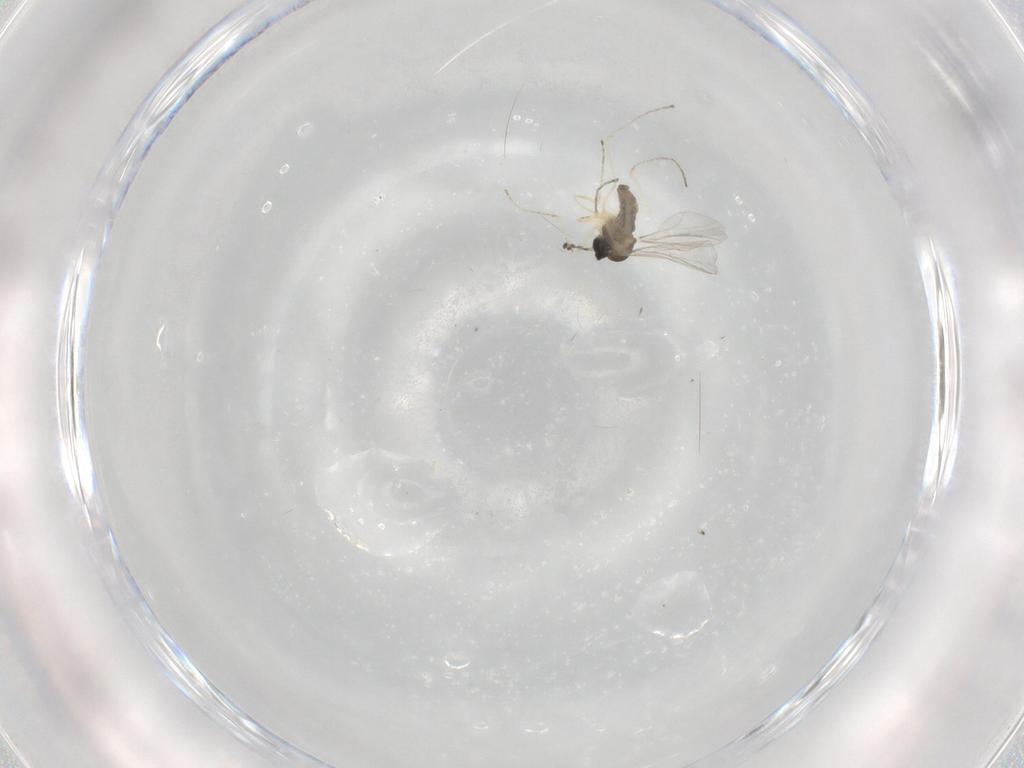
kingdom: Animalia
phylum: Arthropoda
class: Insecta
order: Diptera
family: Cecidomyiidae
